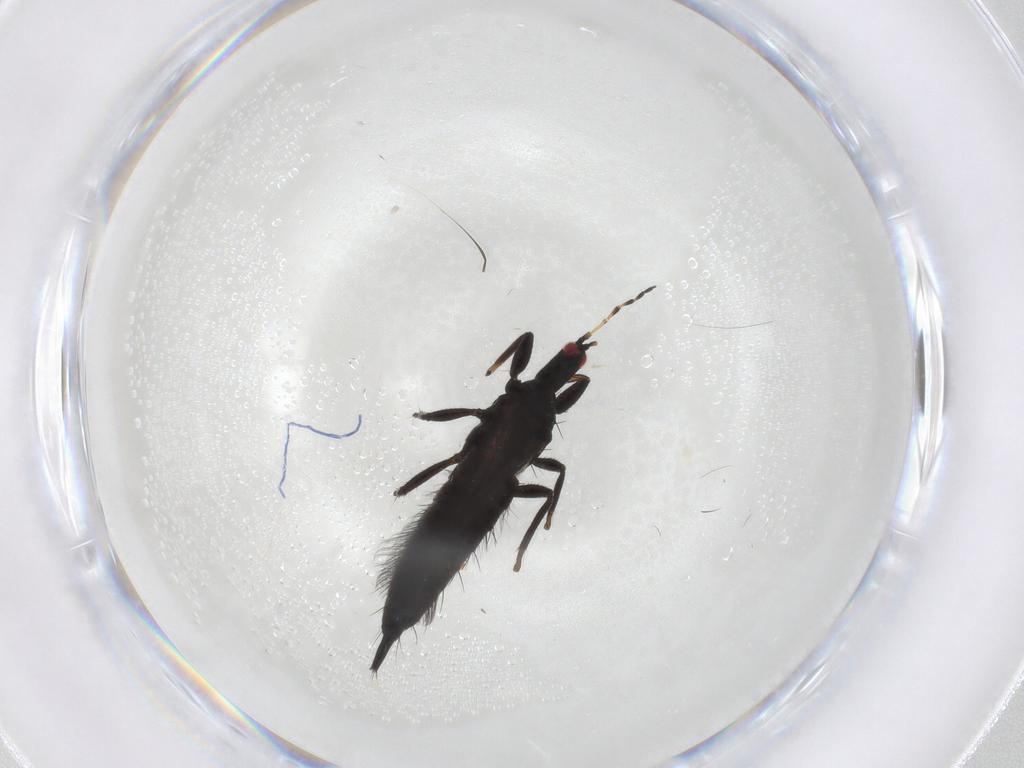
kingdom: Animalia
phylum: Arthropoda
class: Insecta
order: Thysanoptera
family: Phlaeothripidae
